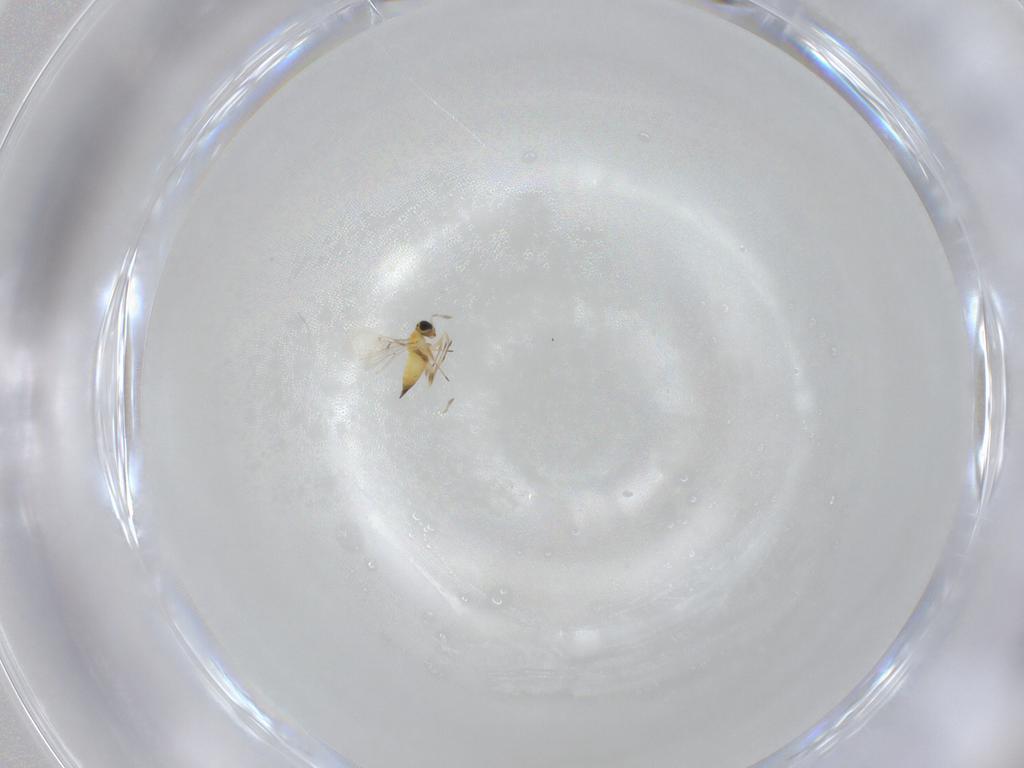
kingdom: Animalia
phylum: Arthropoda
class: Insecta
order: Hymenoptera
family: Trichogrammatidae
